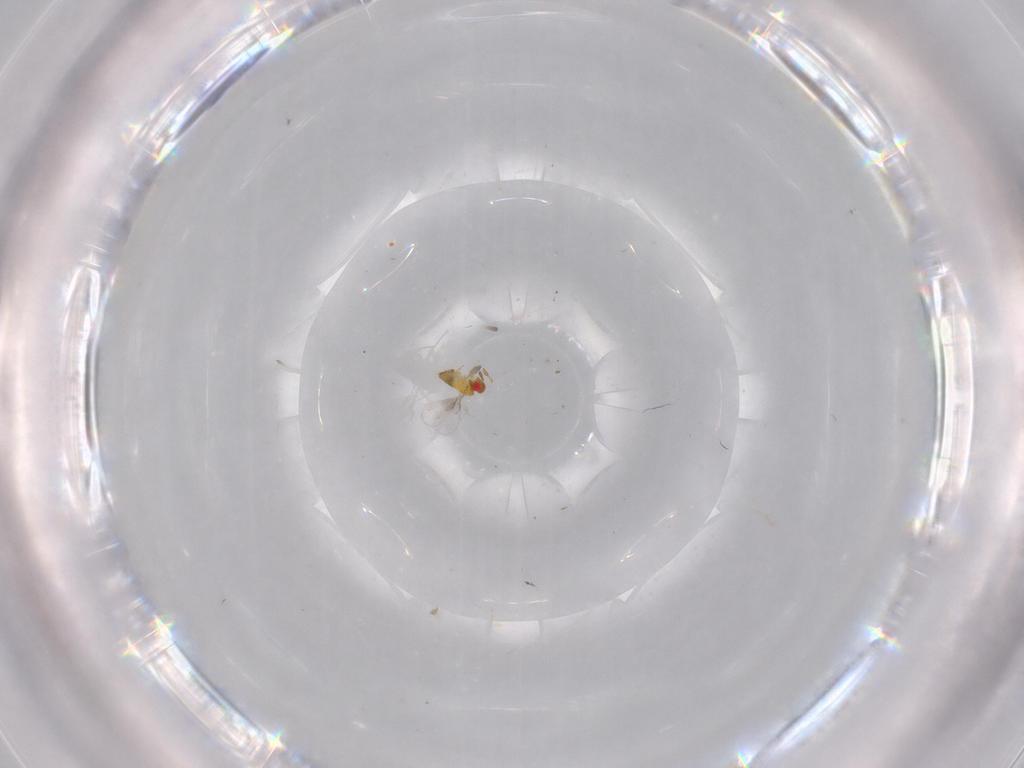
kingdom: Animalia
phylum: Arthropoda
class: Insecta
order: Hymenoptera
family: Trichogrammatidae
